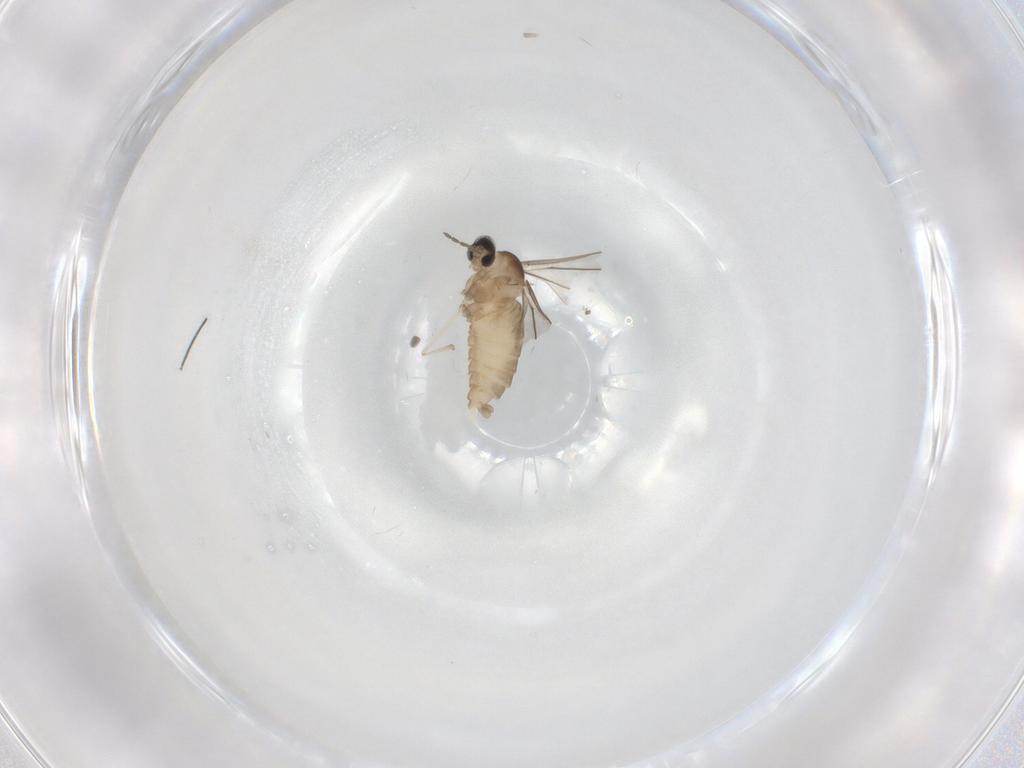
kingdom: Animalia
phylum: Arthropoda
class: Insecta
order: Diptera
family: Cecidomyiidae
